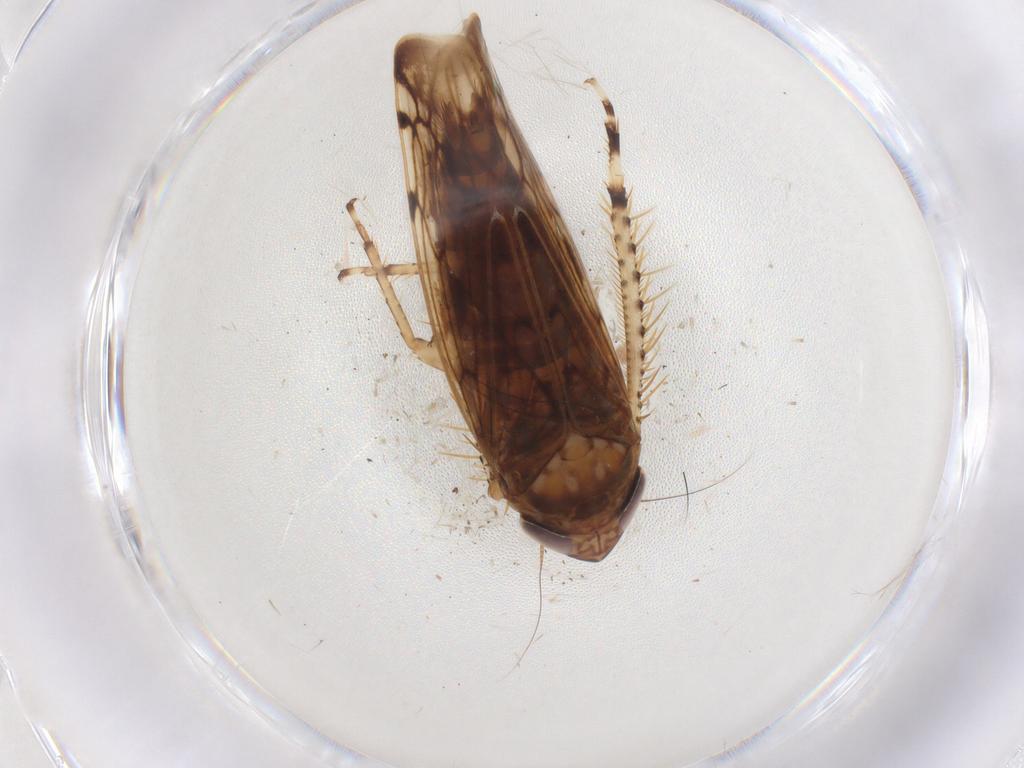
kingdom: Animalia
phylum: Arthropoda
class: Insecta
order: Hemiptera
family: Cicadellidae
